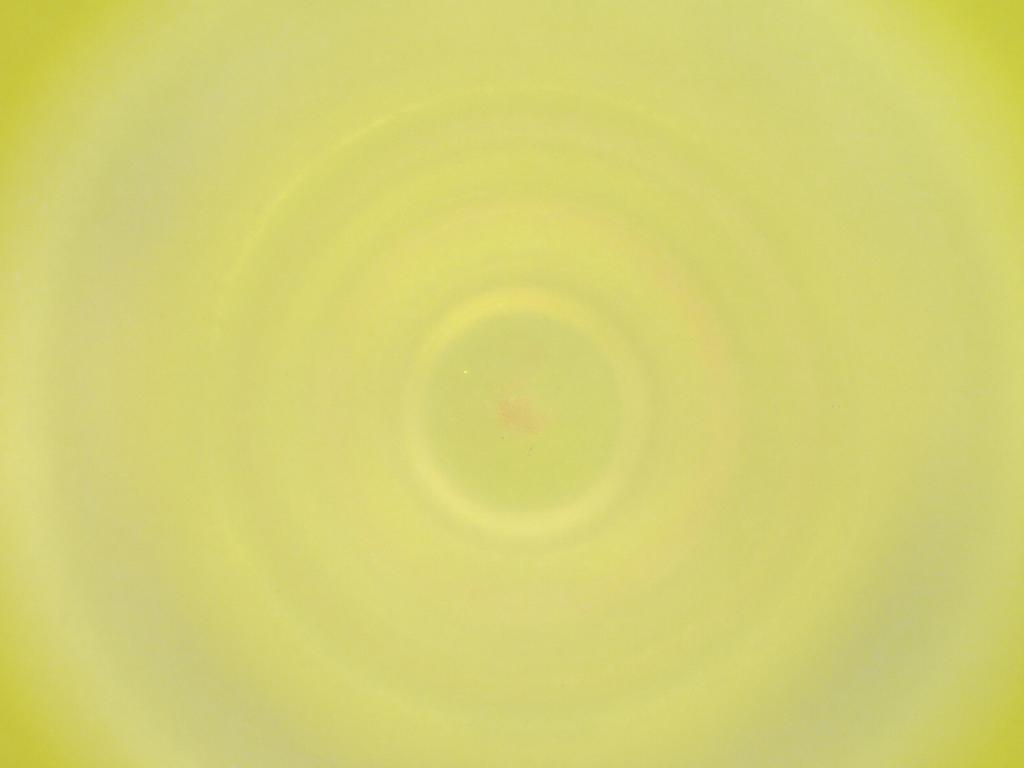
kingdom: Animalia
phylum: Arthropoda
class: Insecta
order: Diptera
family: Cecidomyiidae
